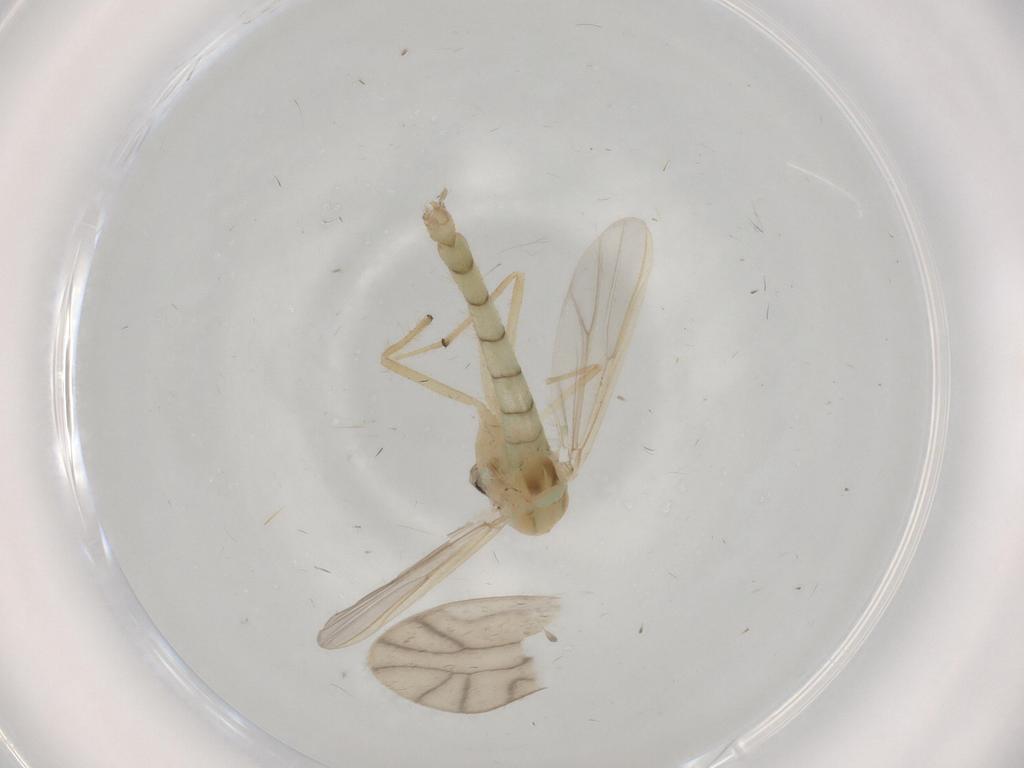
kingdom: Animalia
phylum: Arthropoda
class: Insecta
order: Diptera
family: Chironomidae
